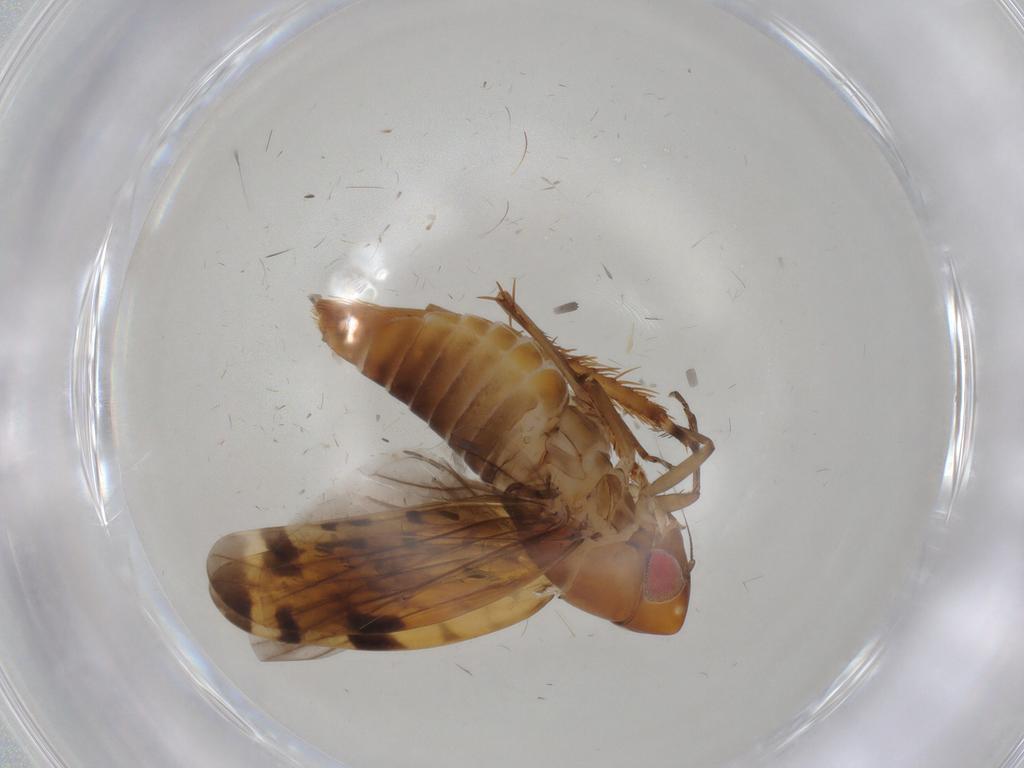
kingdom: Animalia
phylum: Arthropoda
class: Insecta
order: Hemiptera
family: Cicadellidae
